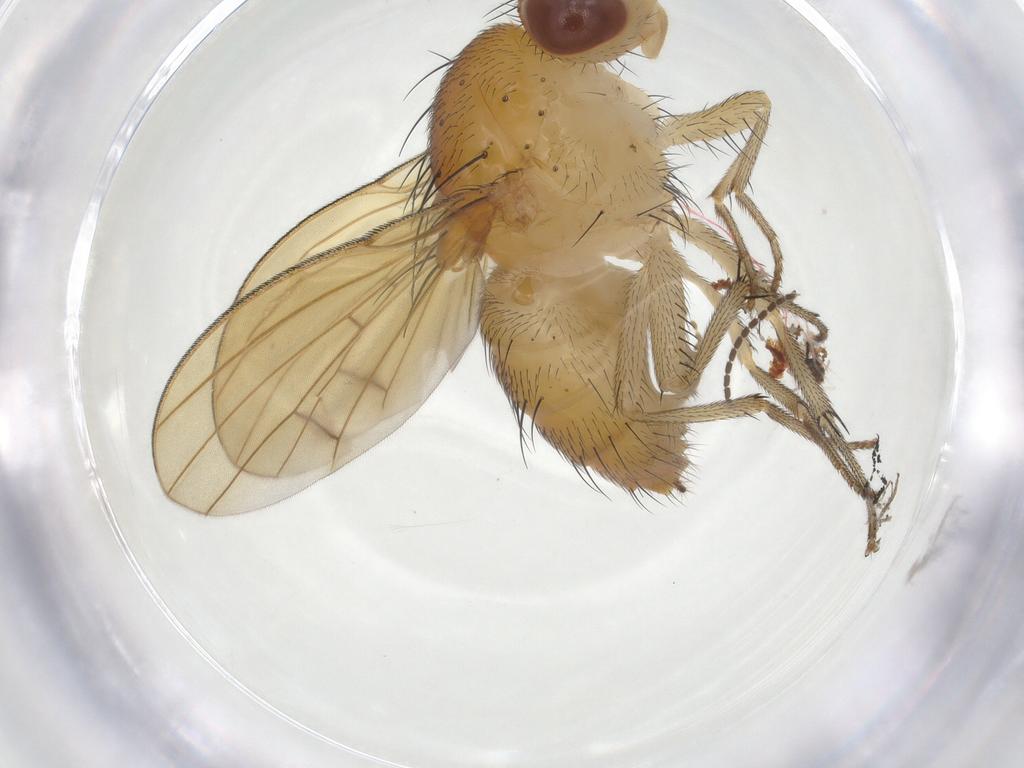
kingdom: Animalia
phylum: Arthropoda
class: Insecta
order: Diptera
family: Lauxaniidae
